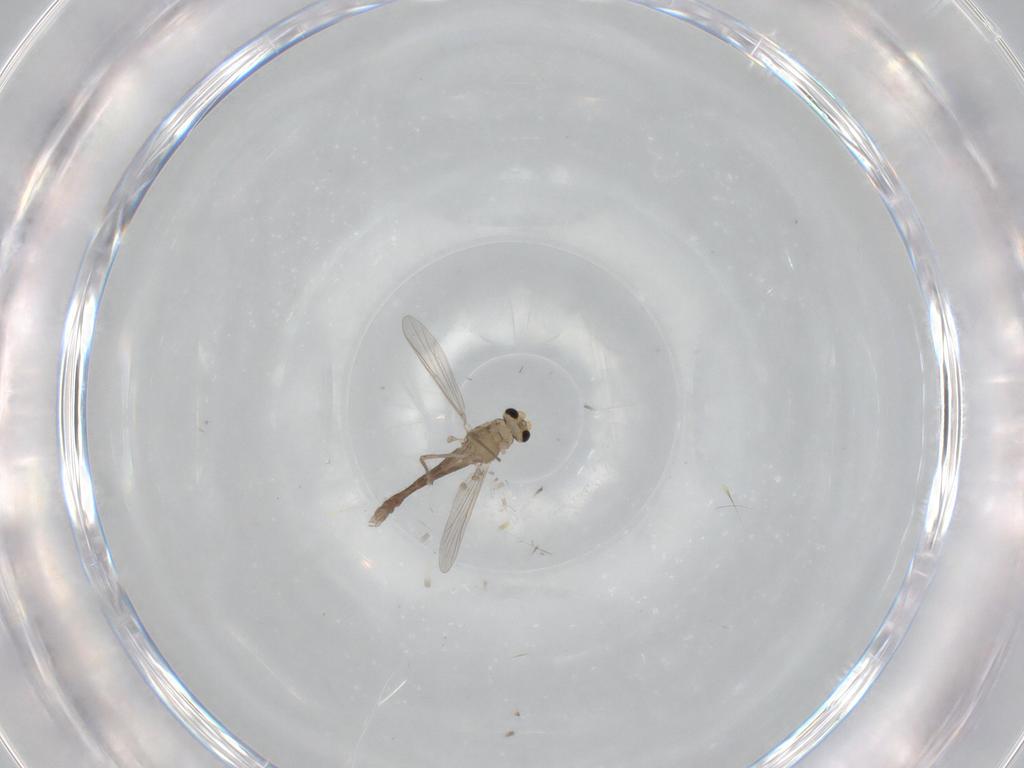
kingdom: Animalia
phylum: Arthropoda
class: Insecta
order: Diptera
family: Chironomidae
